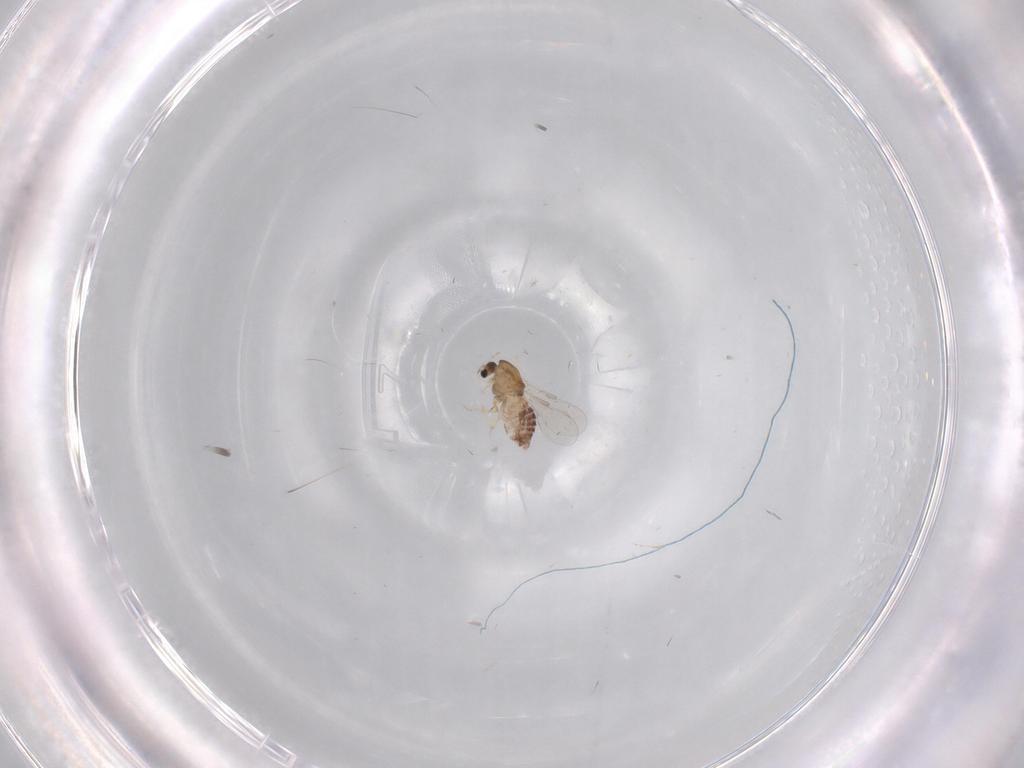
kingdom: Animalia
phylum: Arthropoda
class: Insecta
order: Diptera
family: Chironomidae
